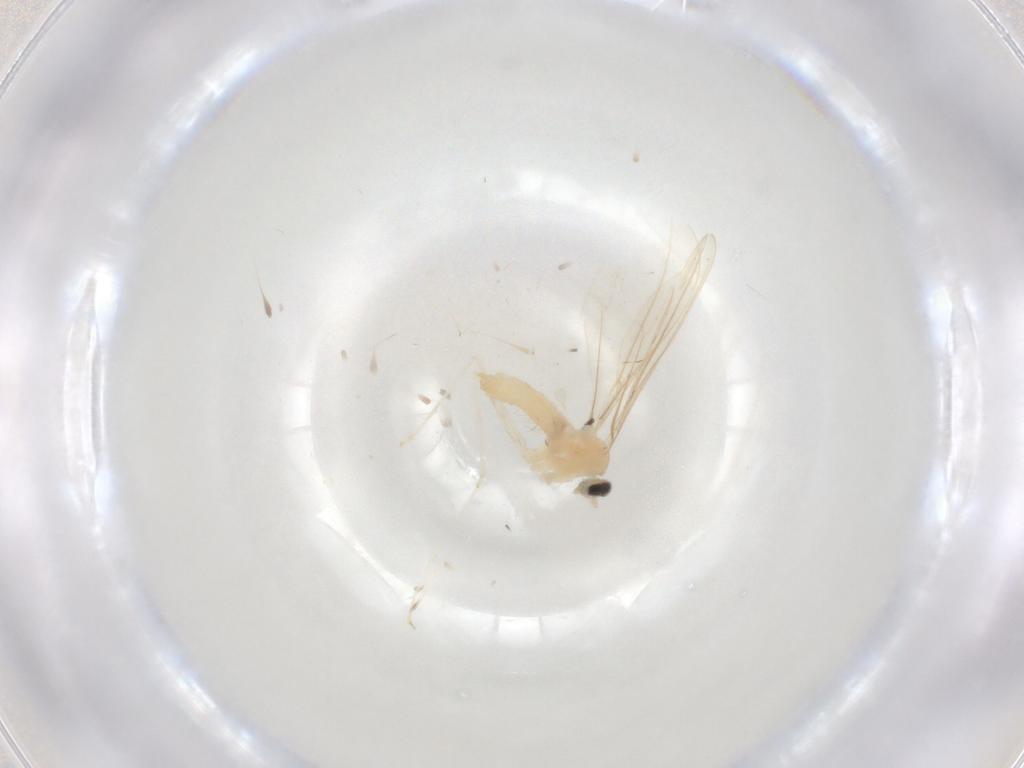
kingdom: Animalia
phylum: Arthropoda
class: Insecta
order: Diptera
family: Cecidomyiidae
